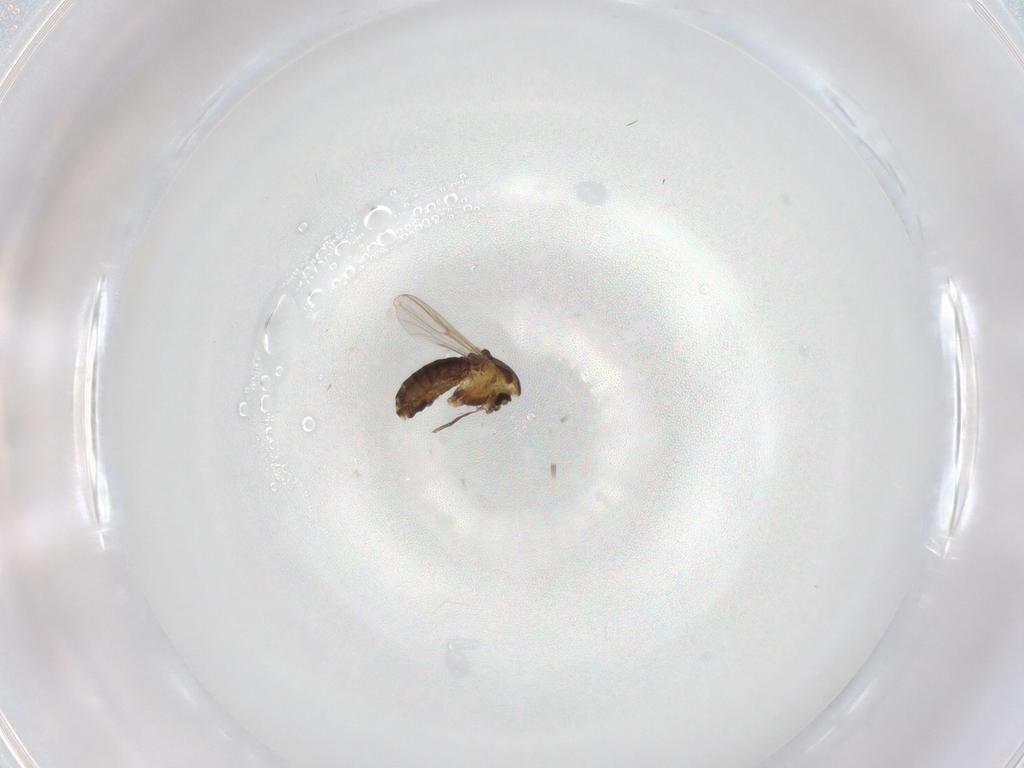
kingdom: Animalia
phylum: Arthropoda
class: Insecta
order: Diptera
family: Chironomidae
